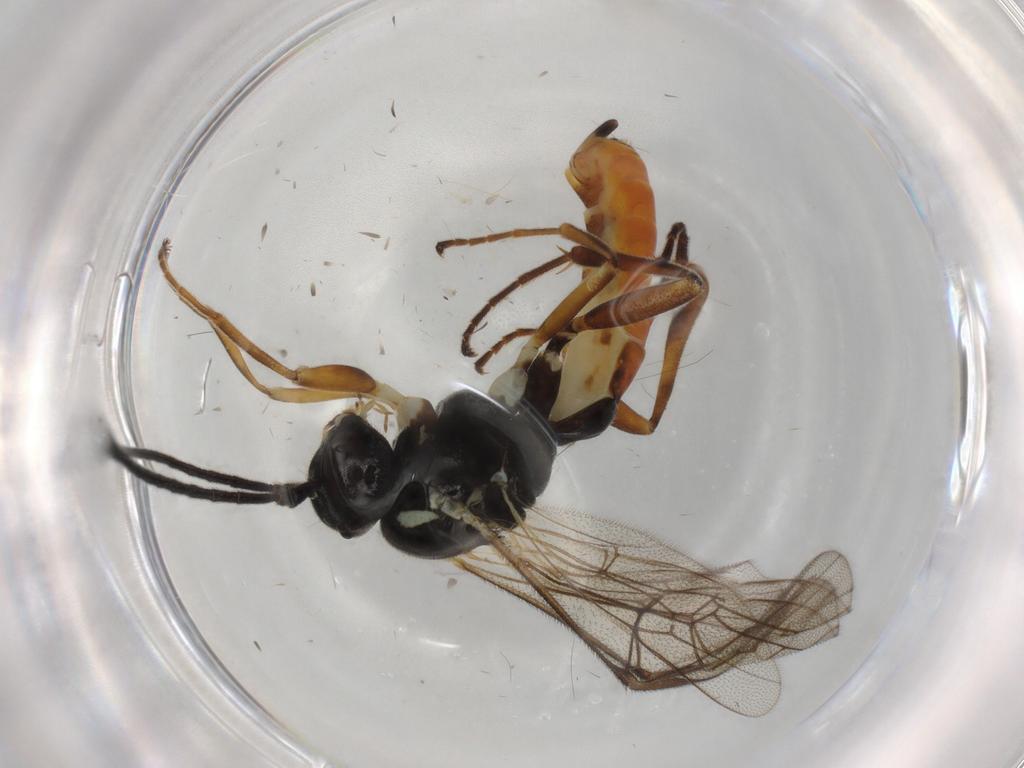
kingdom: Animalia
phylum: Arthropoda
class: Insecta
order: Hymenoptera
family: Ichneumonidae
